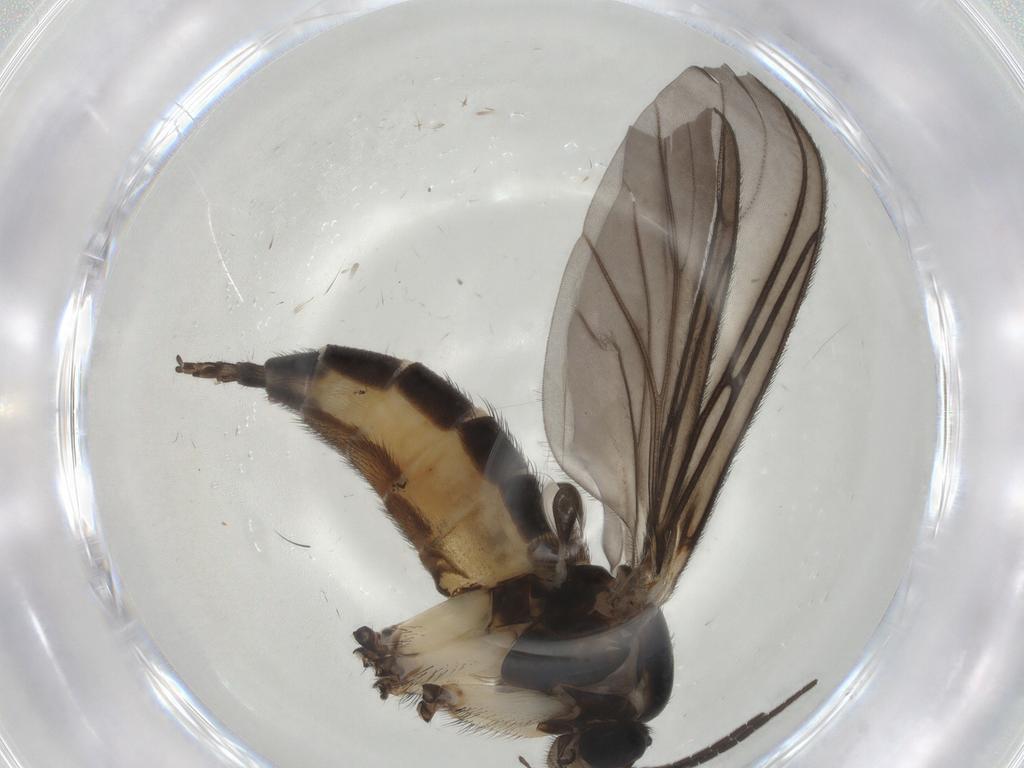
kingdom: Animalia
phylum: Arthropoda
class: Insecta
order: Diptera
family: Sciaridae
